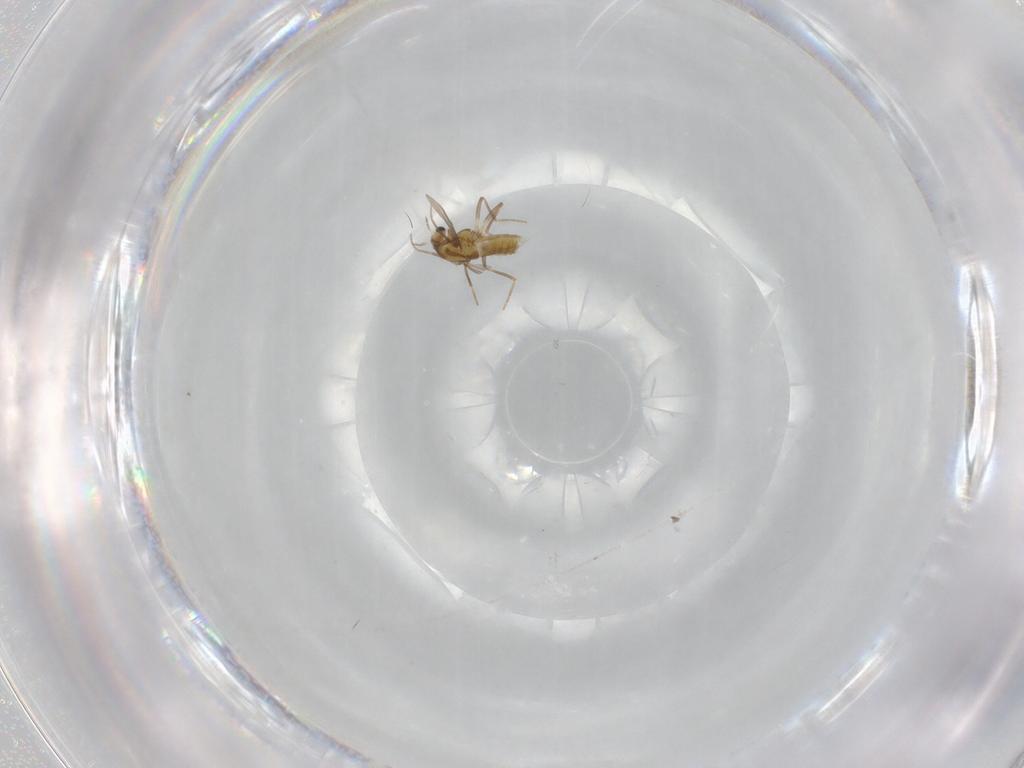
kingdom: Animalia
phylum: Arthropoda
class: Insecta
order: Diptera
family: Chironomidae
